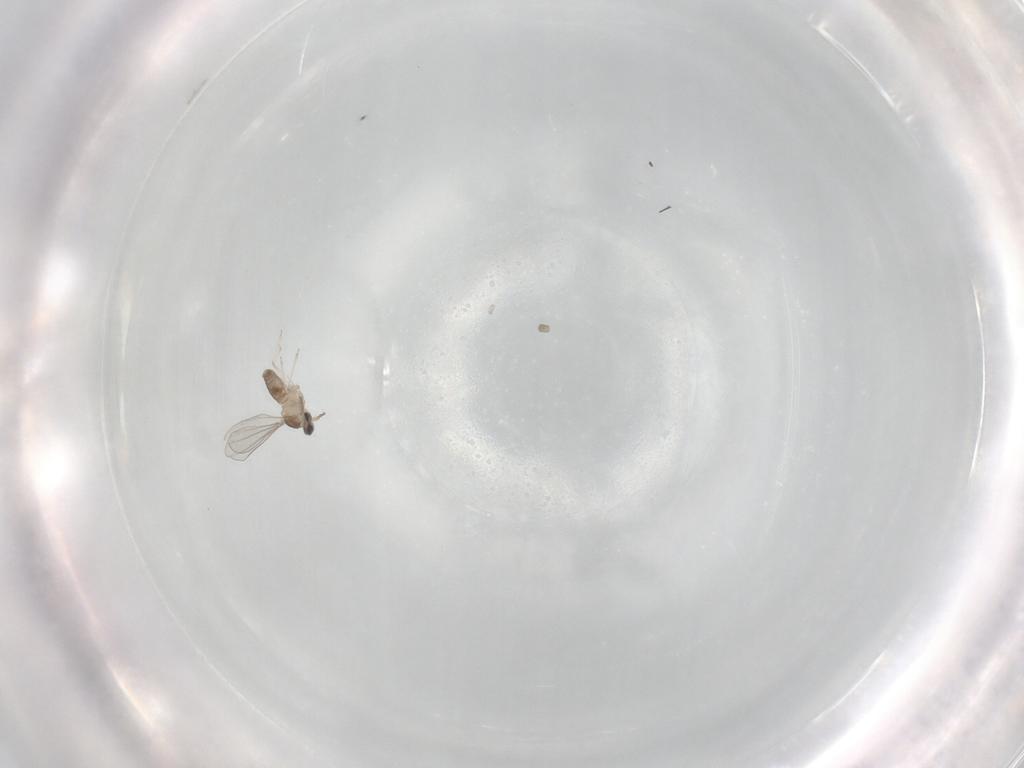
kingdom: Animalia
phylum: Arthropoda
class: Insecta
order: Diptera
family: Cecidomyiidae
